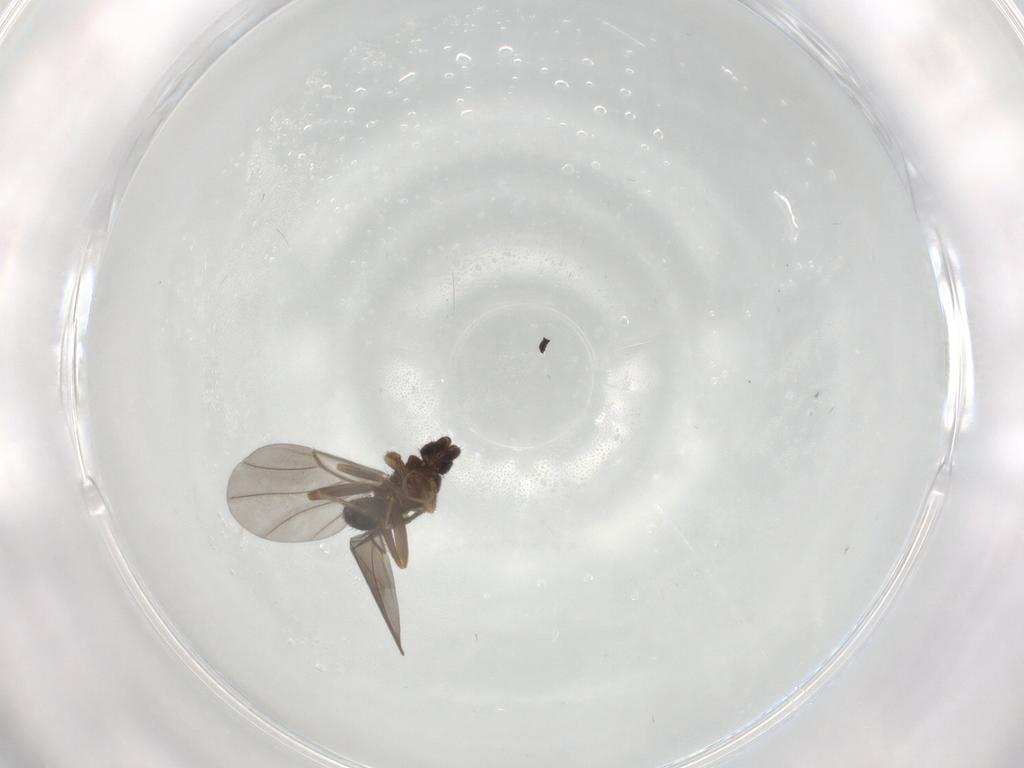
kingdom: Animalia
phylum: Arthropoda
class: Insecta
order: Diptera
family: Phoridae
